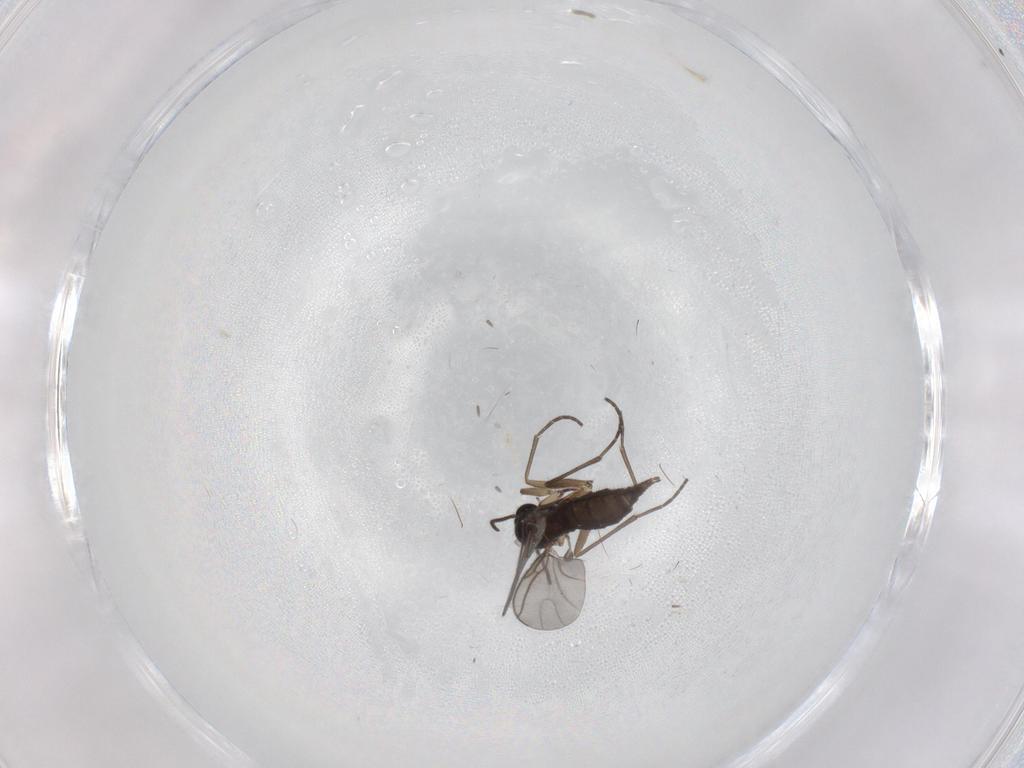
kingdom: Animalia
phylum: Arthropoda
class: Insecta
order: Diptera
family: Sciaridae
